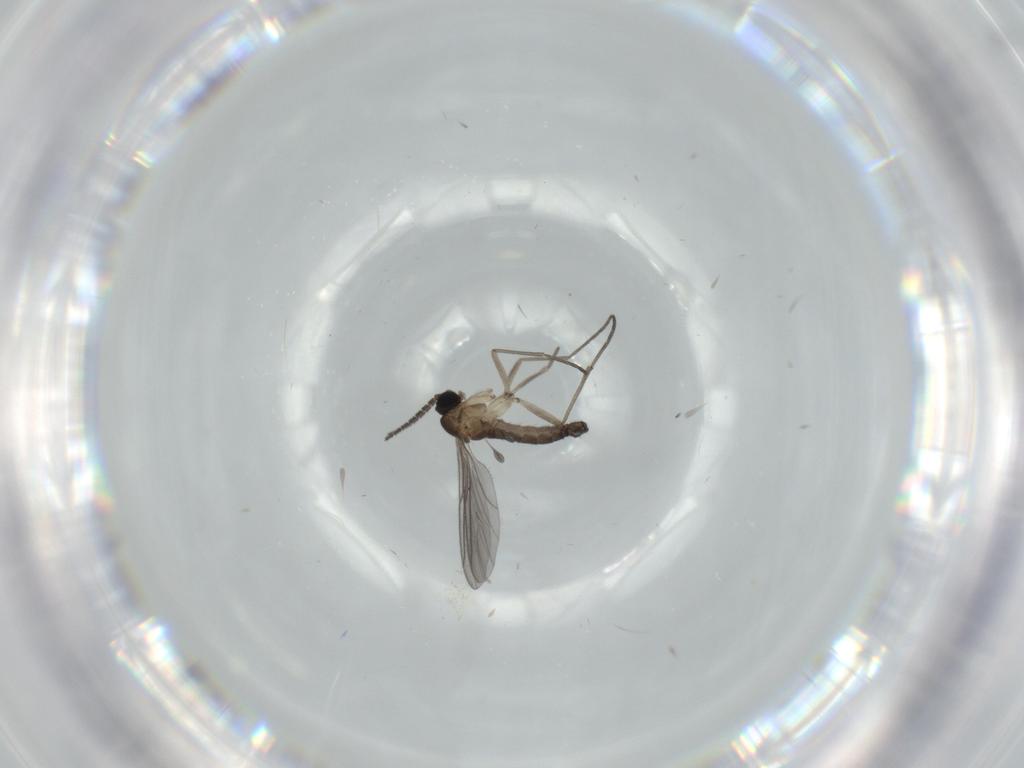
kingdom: Animalia
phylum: Arthropoda
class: Insecta
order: Diptera
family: Sciaridae
